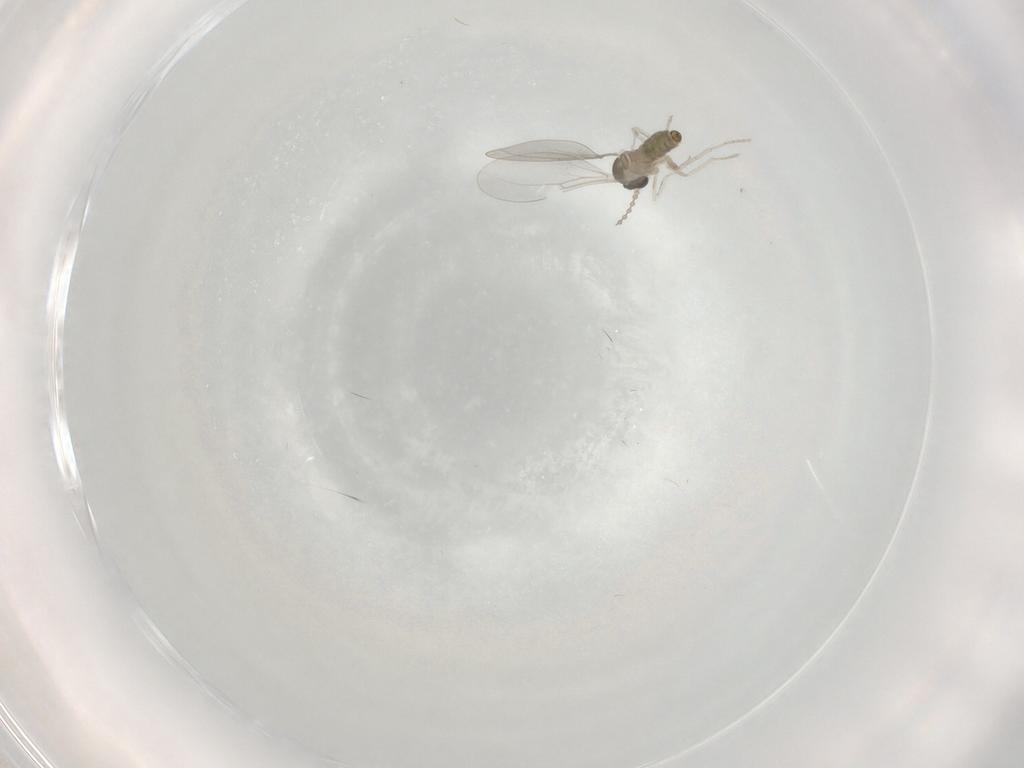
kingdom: Animalia
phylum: Arthropoda
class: Insecta
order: Diptera
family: Cecidomyiidae
